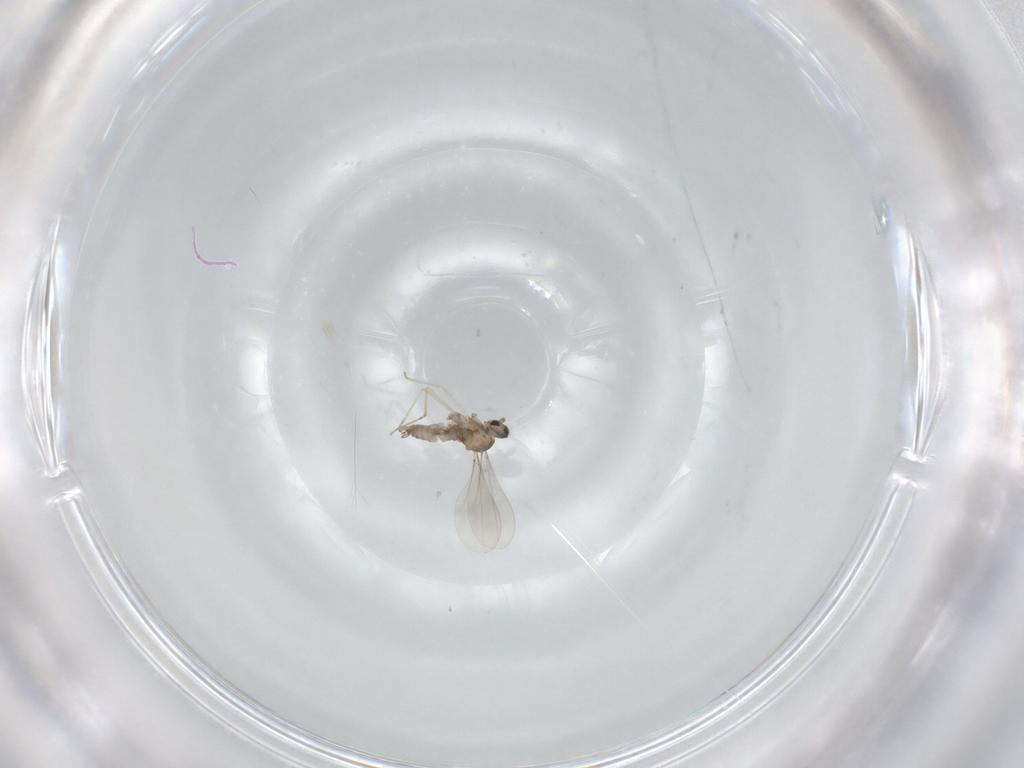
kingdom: Animalia
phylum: Arthropoda
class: Insecta
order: Diptera
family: Cecidomyiidae
